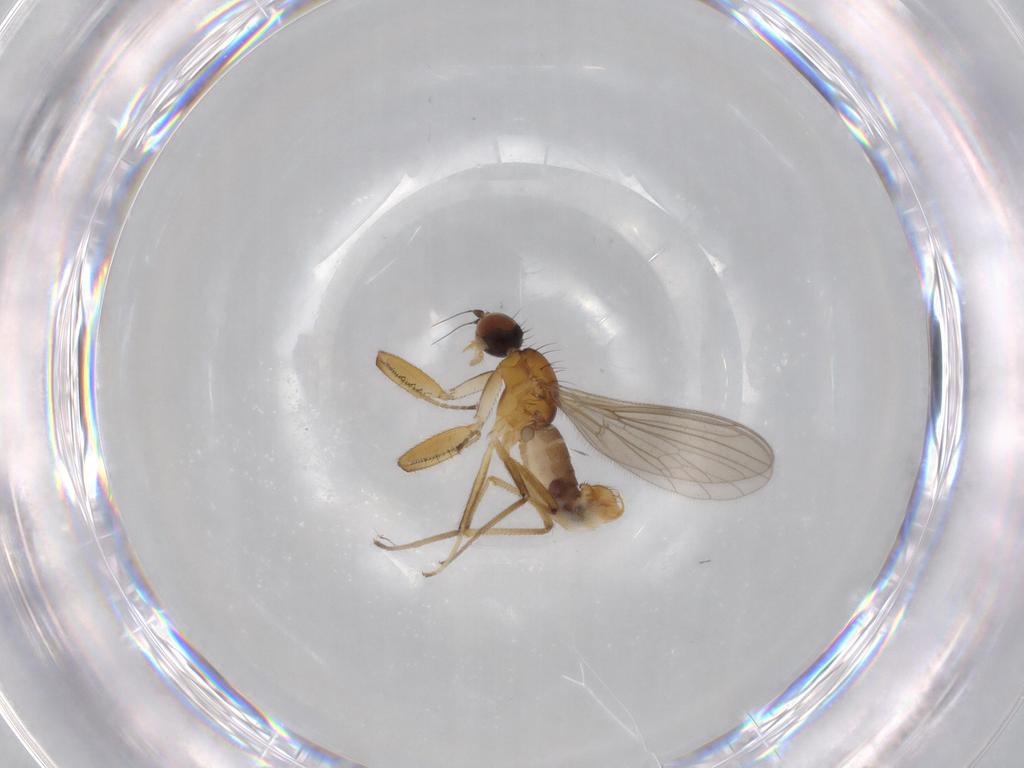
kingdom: Animalia
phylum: Arthropoda
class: Insecta
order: Diptera
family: Empididae
